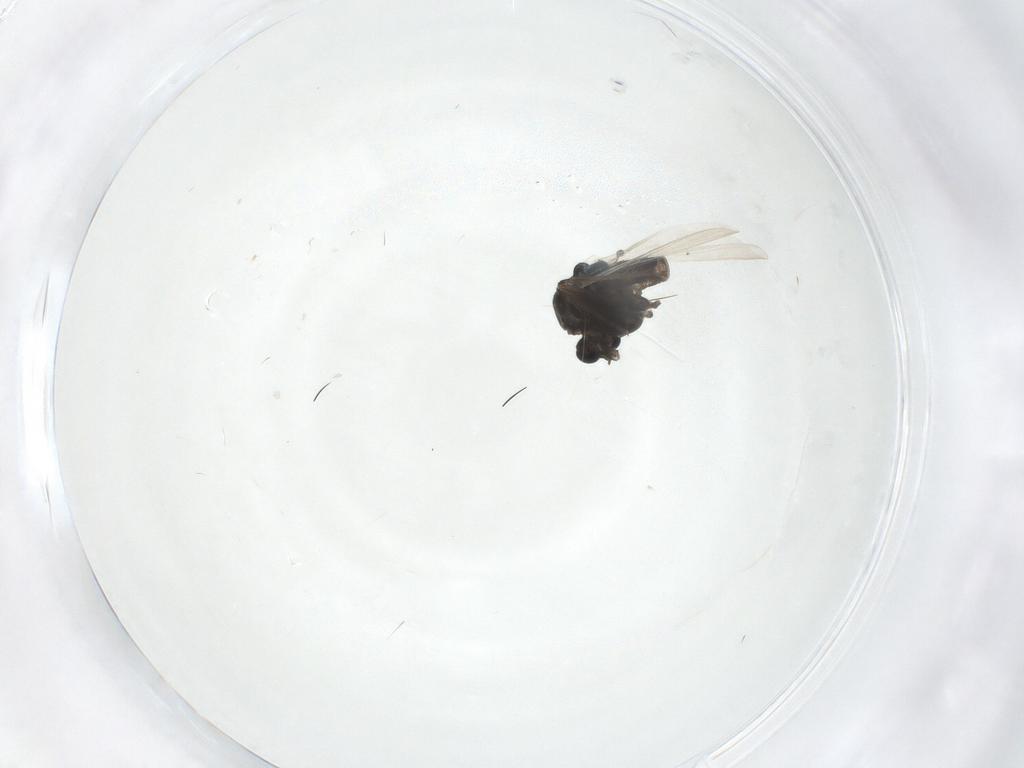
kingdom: Animalia
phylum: Arthropoda
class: Insecta
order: Diptera
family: Syrphidae
